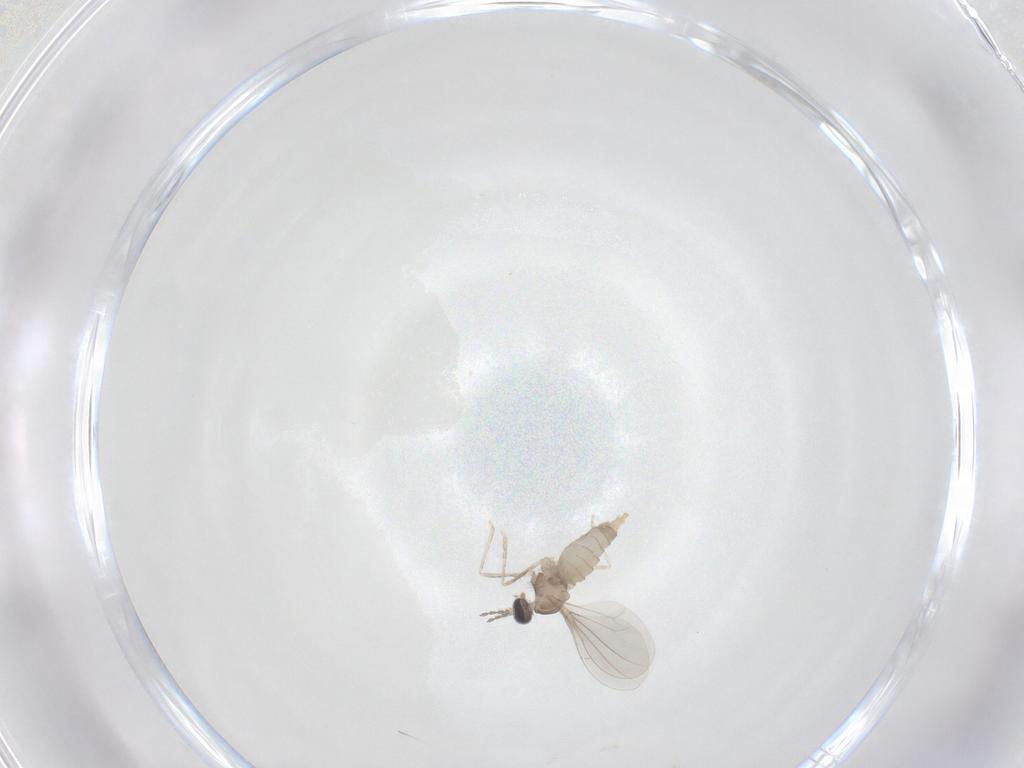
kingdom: Animalia
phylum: Arthropoda
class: Insecta
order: Diptera
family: Cecidomyiidae
